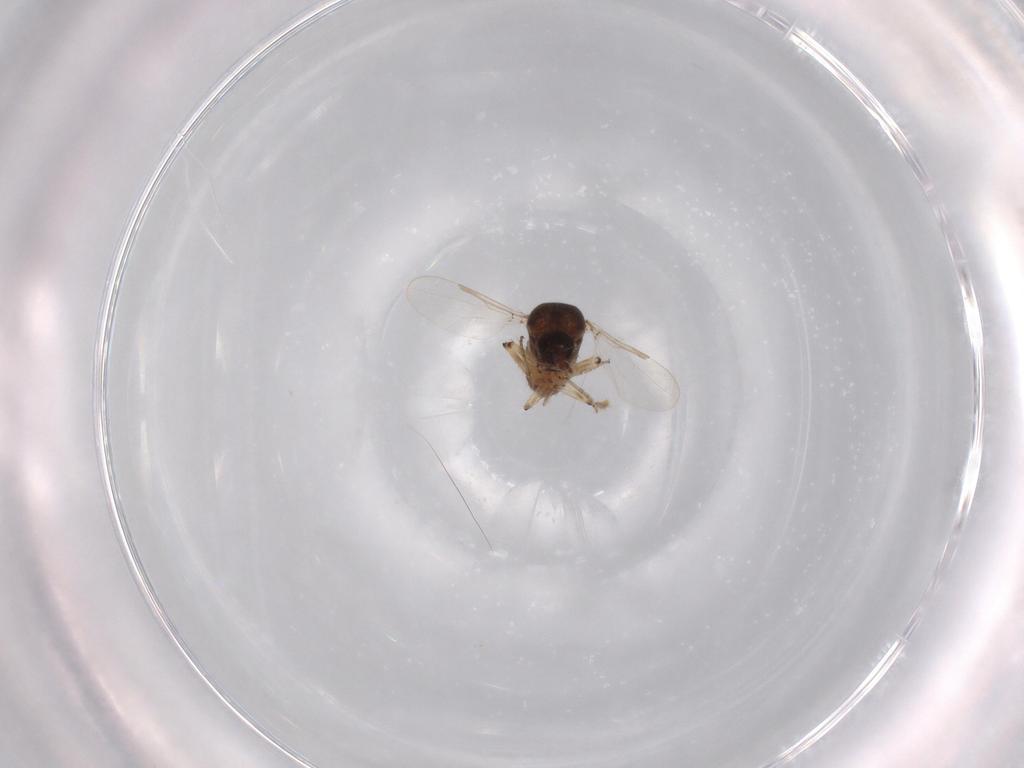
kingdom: Animalia
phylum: Arthropoda
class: Insecta
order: Diptera
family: Ceratopogonidae
